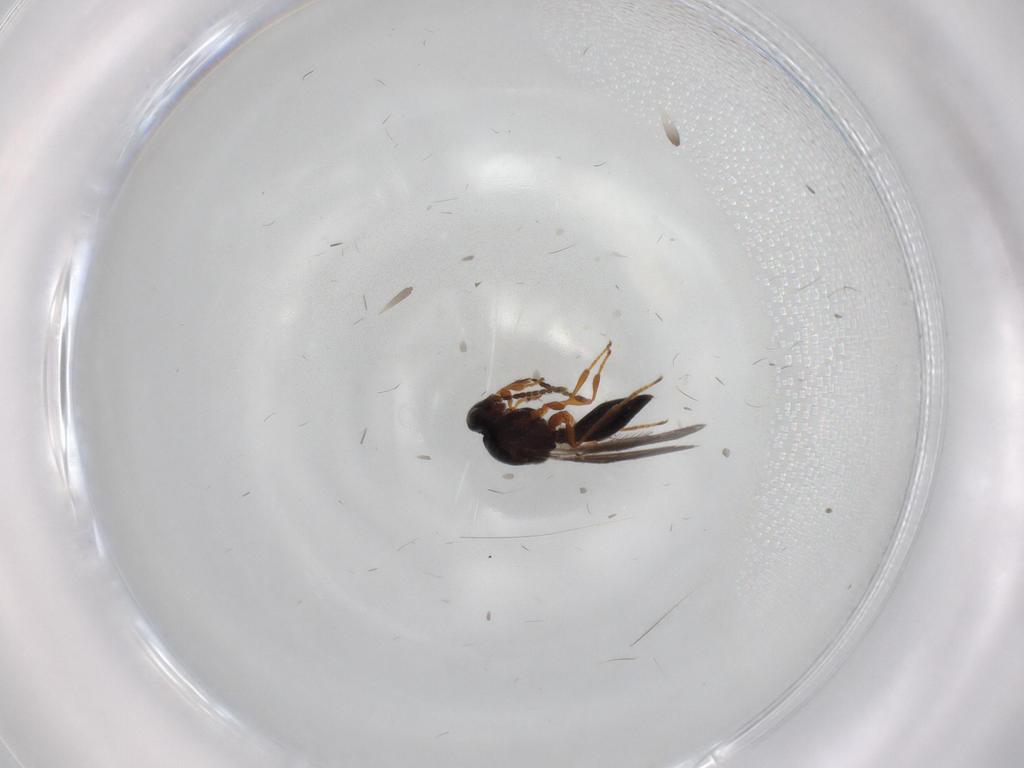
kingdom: Animalia
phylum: Arthropoda
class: Insecta
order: Hymenoptera
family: Platygastridae
